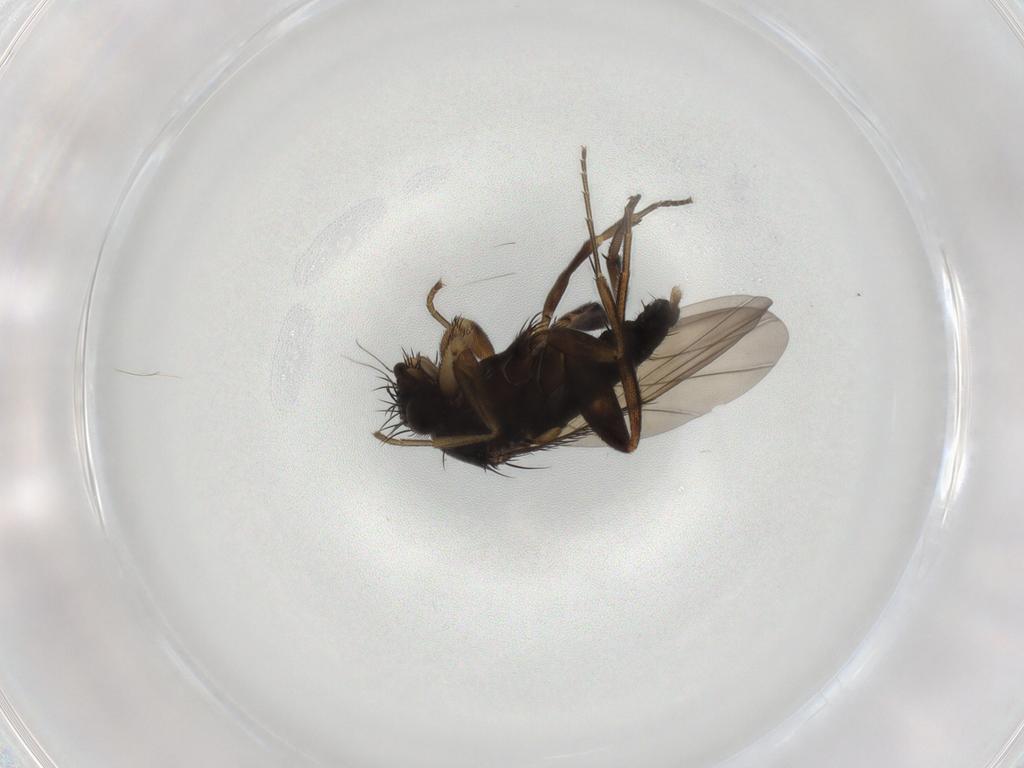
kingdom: Animalia
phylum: Arthropoda
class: Insecta
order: Diptera
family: Phoridae
